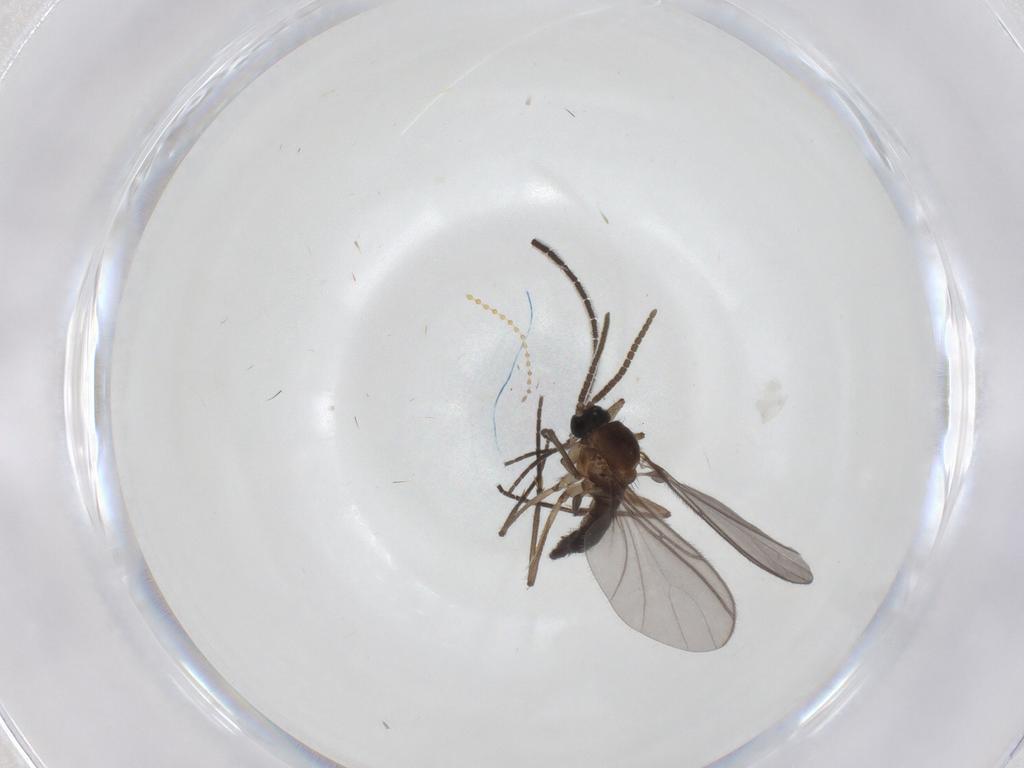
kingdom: Animalia
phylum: Arthropoda
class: Insecta
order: Diptera
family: Sciaridae
